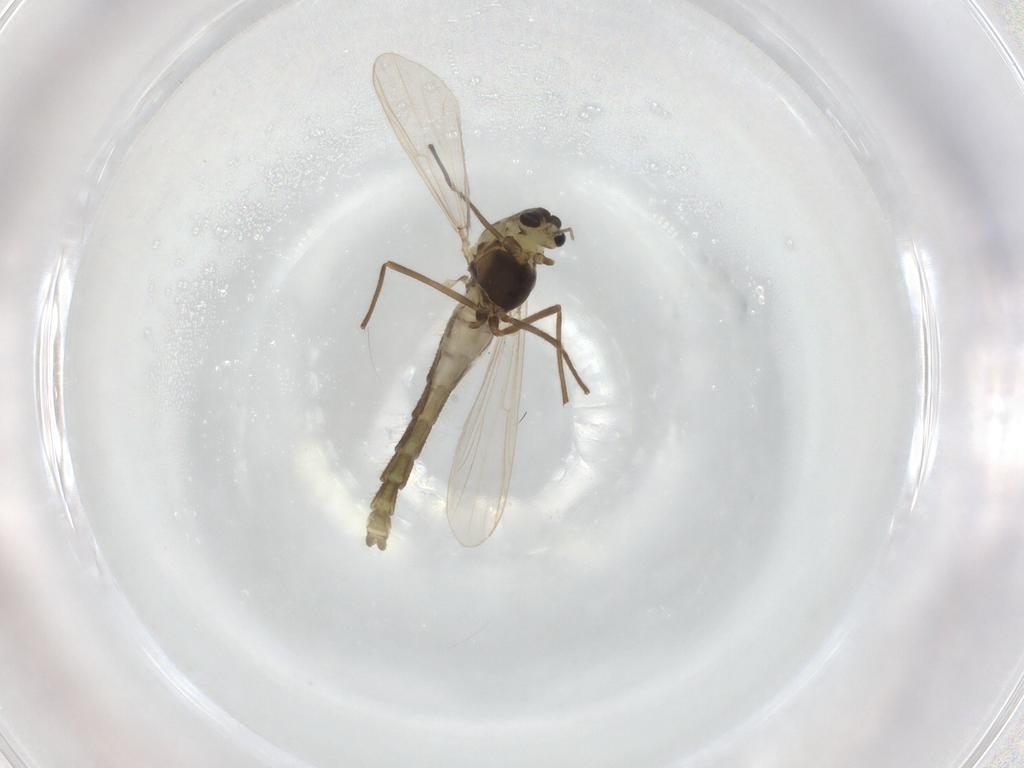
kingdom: Animalia
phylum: Arthropoda
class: Insecta
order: Diptera
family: Chironomidae
